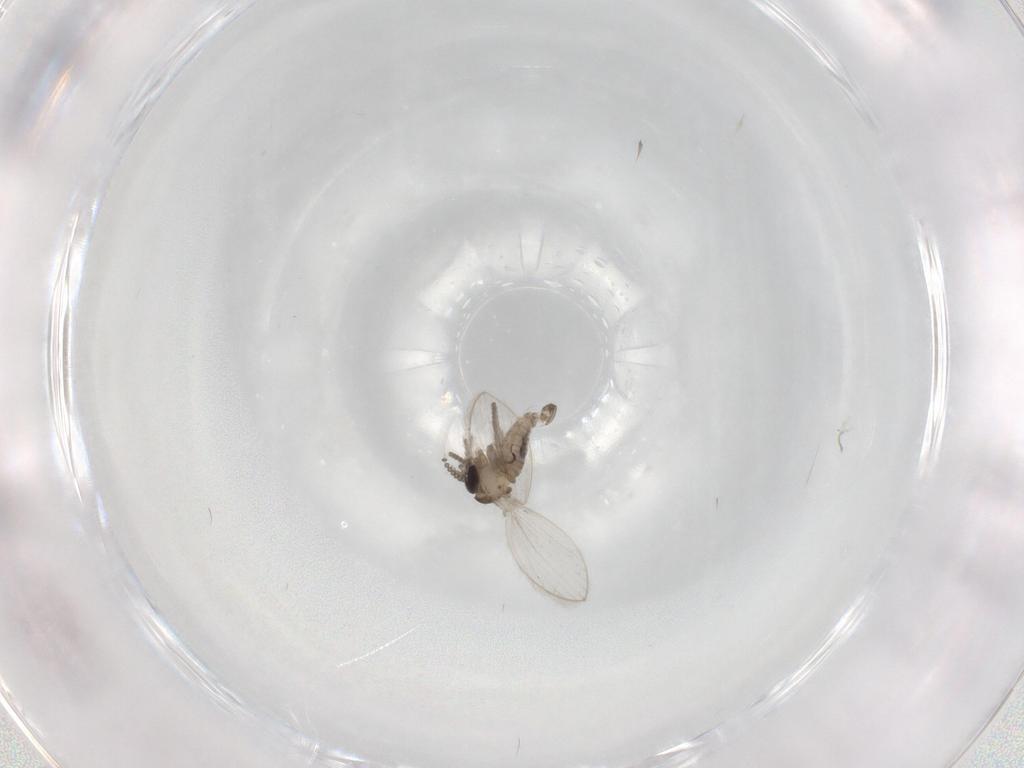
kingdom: Animalia
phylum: Arthropoda
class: Insecta
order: Diptera
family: Psychodidae
